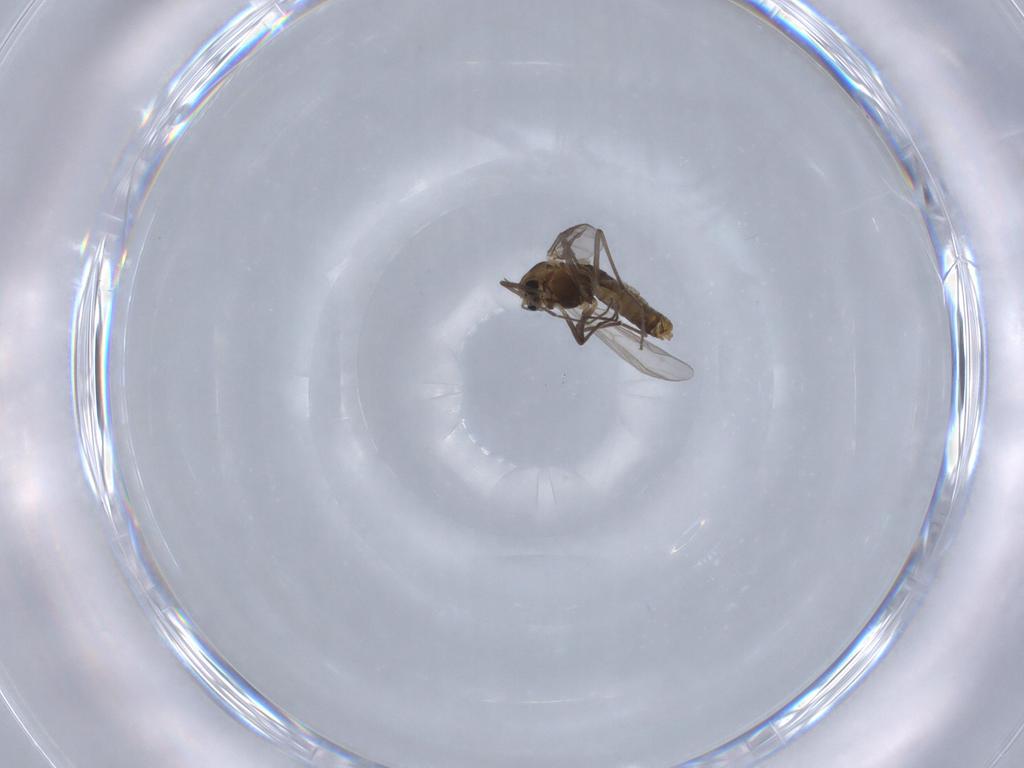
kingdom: Animalia
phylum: Arthropoda
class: Insecta
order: Diptera
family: Chironomidae
